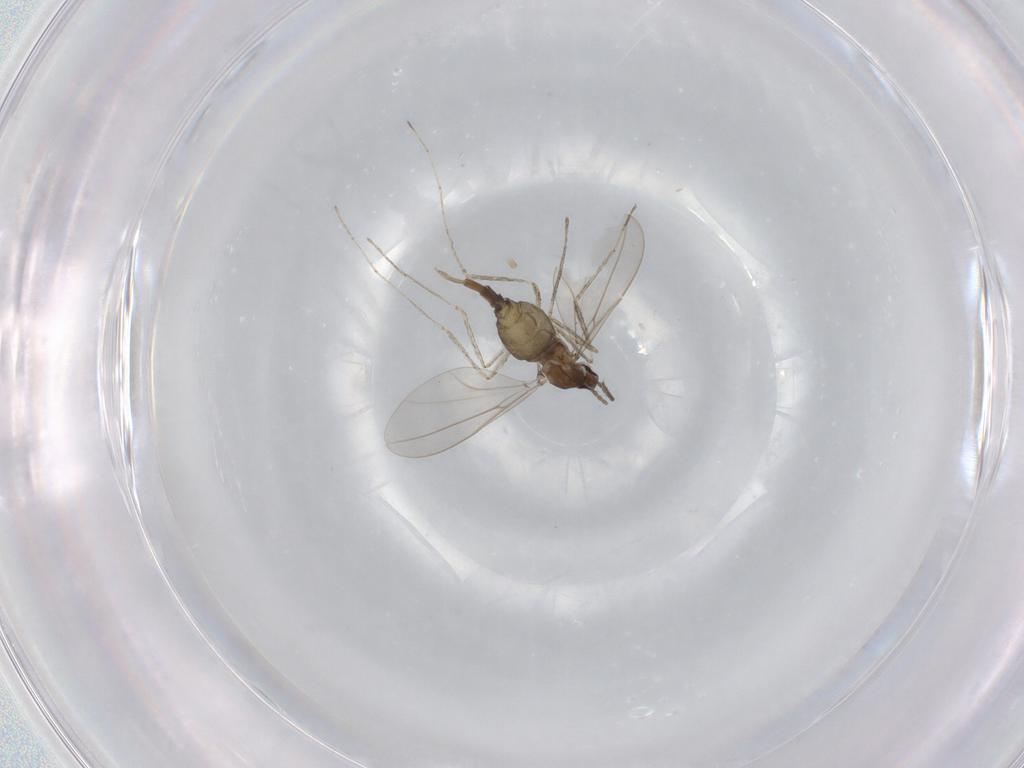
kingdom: Animalia
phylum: Arthropoda
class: Insecta
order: Diptera
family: Cecidomyiidae
